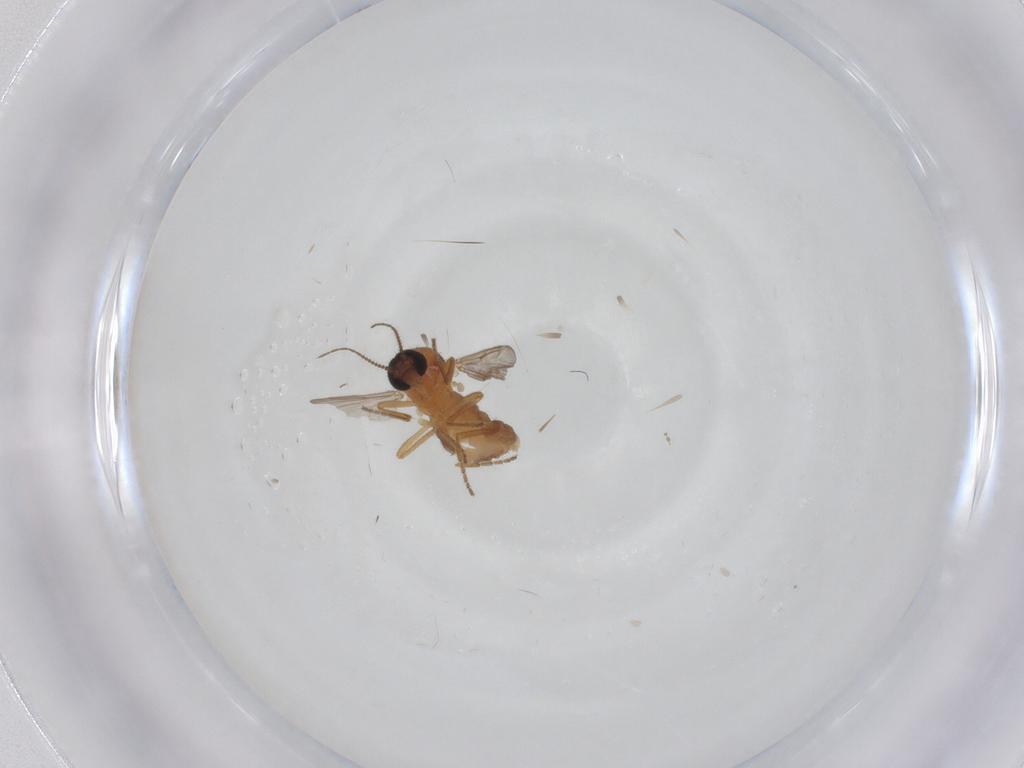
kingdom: Animalia
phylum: Arthropoda
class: Insecta
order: Diptera
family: Ceratopogonidae
